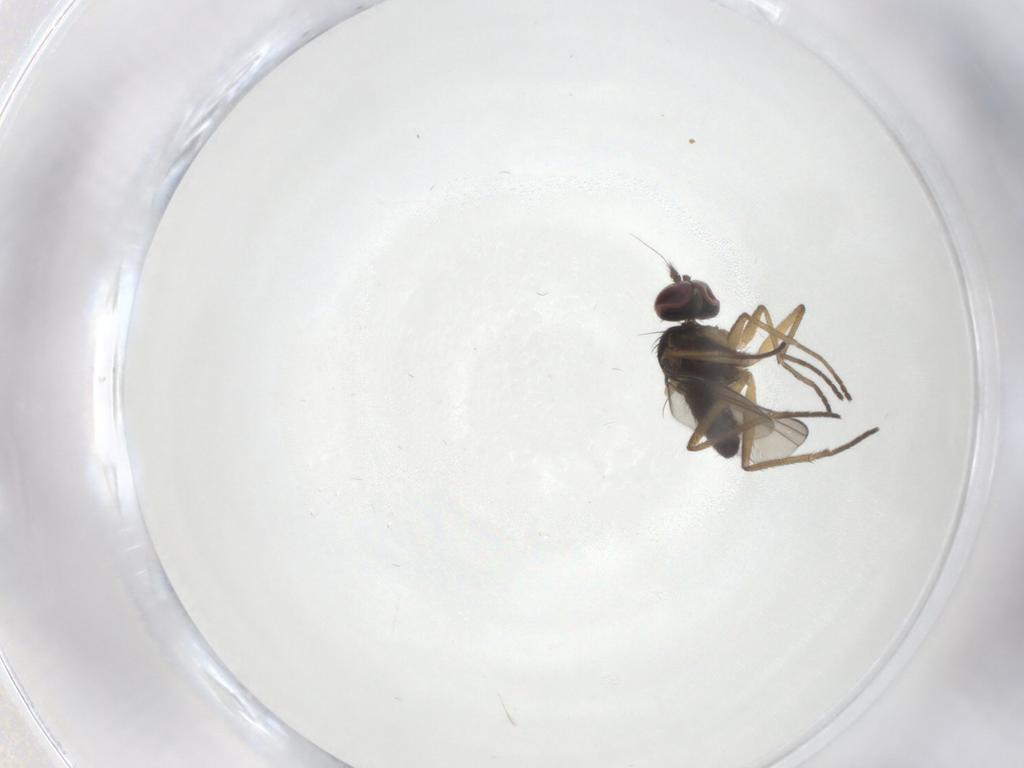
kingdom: Animalia
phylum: Arthropoda
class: Insecta
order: Diptera
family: Dolichopodidae
